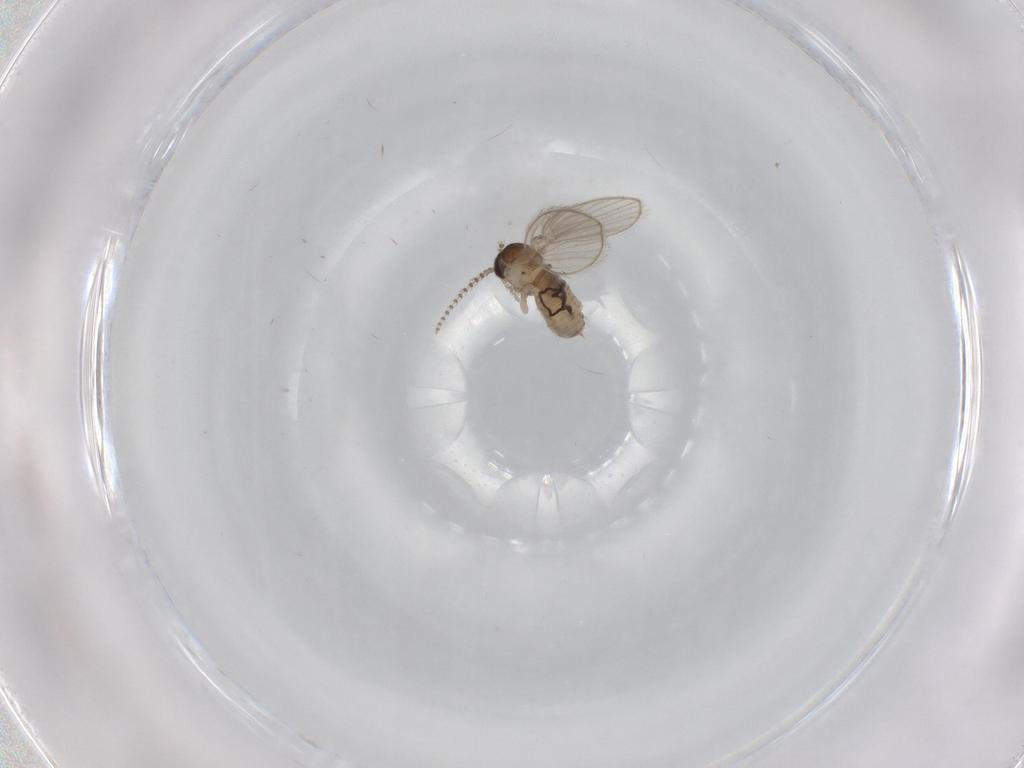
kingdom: Animalia
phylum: Arthropoda
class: Insecta
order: Diptera
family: Psychodidae
